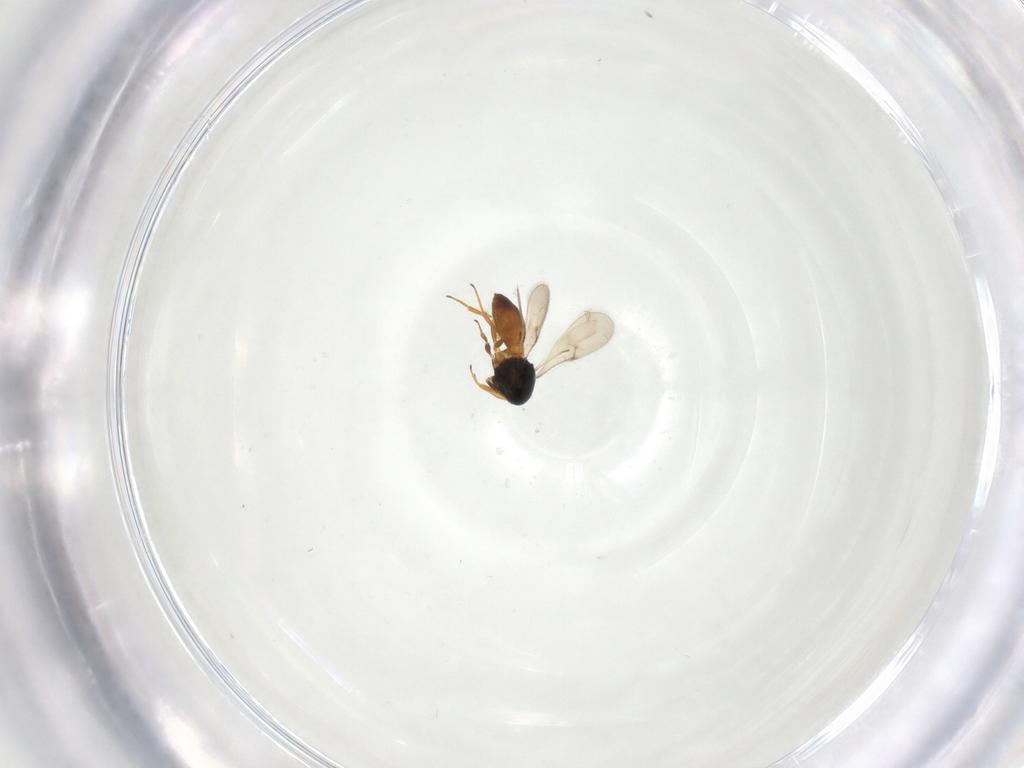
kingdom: Animalia
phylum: Arthropoda
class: Insecta
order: Hymenoptera
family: Scelionidae
